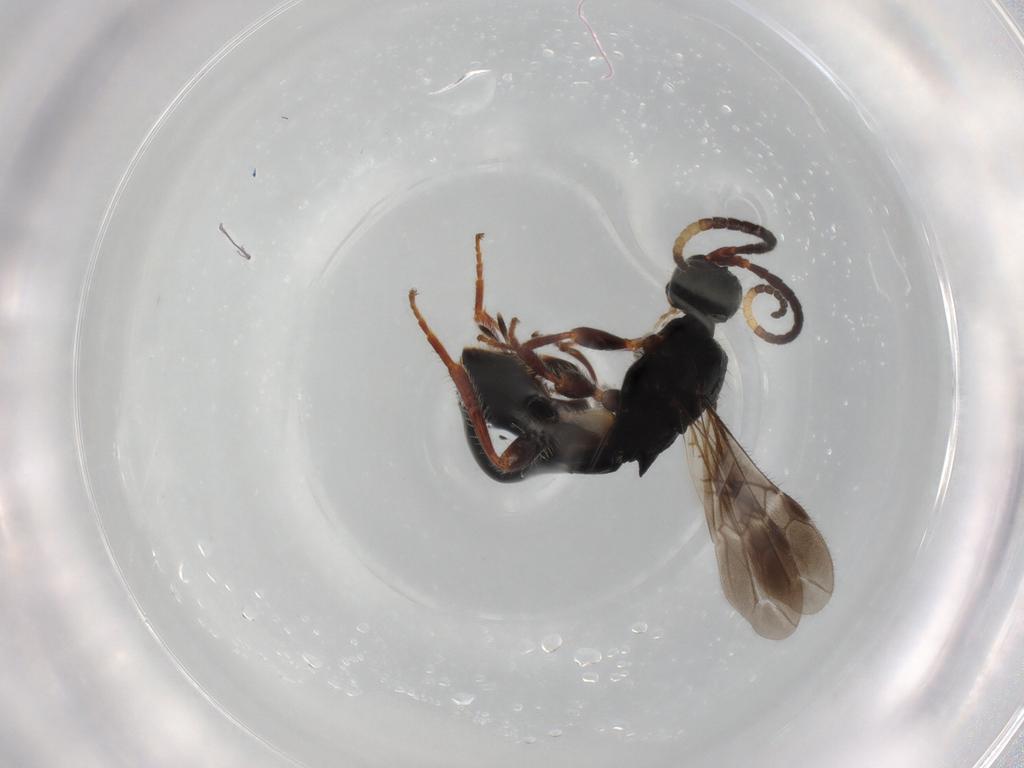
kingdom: Animalia
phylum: Arthropoda
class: Insecta
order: Hymenoptera
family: Braconidae
